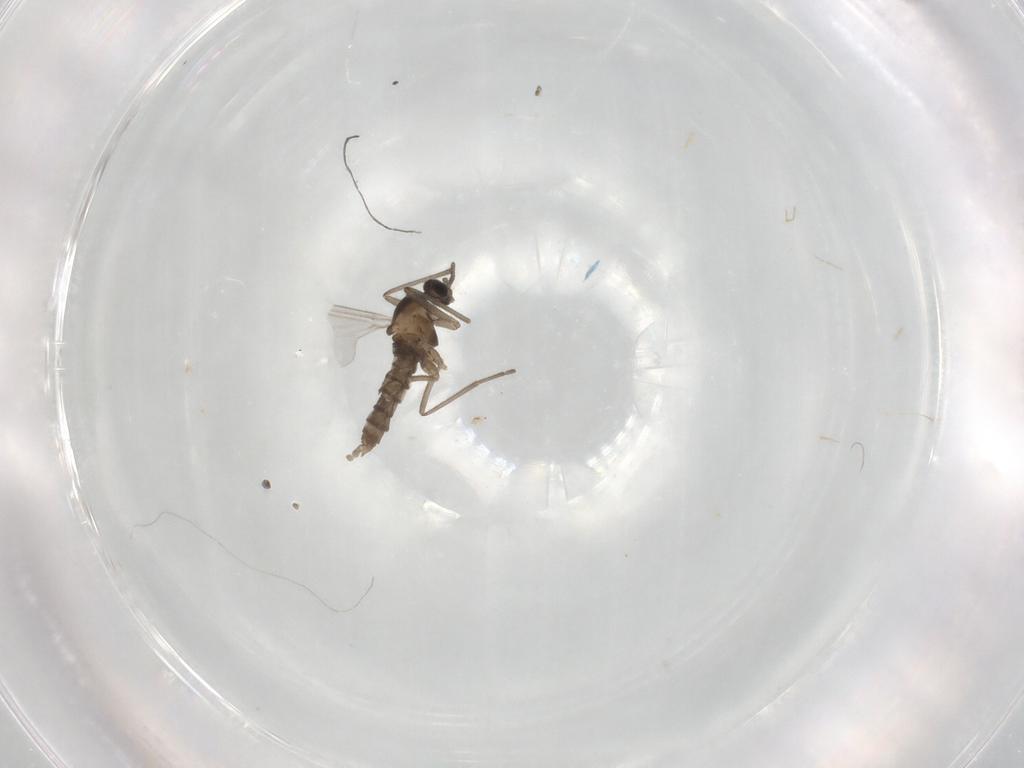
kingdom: Animalia
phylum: Arthropoda
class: Insecta
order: Diptera
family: Cecidomyiidae
